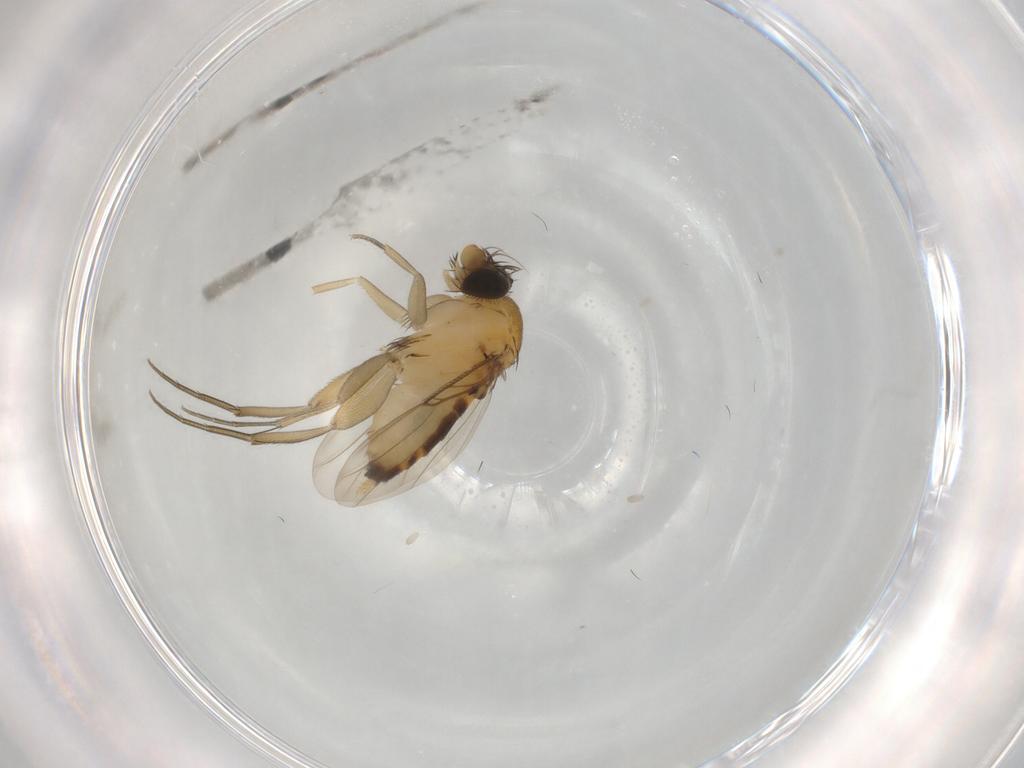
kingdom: Animalia
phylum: Arthropoda
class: Insecta
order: Diptera
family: Phoridae
